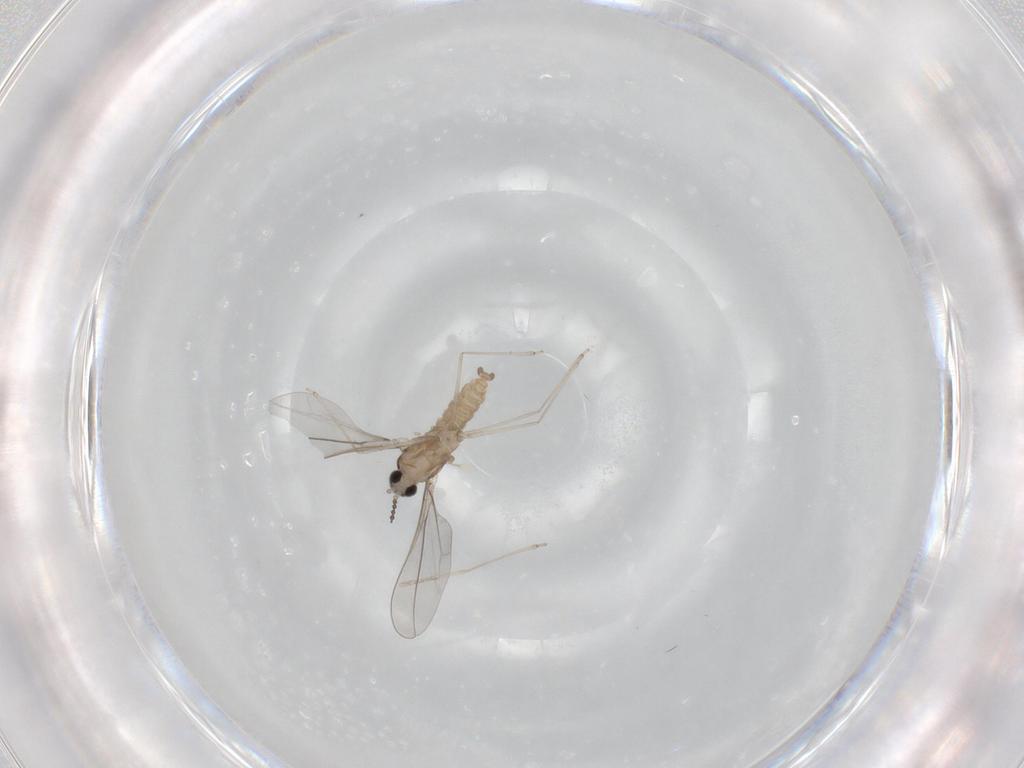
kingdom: Animalia
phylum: Arthropoda
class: Insecta
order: Diptera
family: Cecidomyiidae
